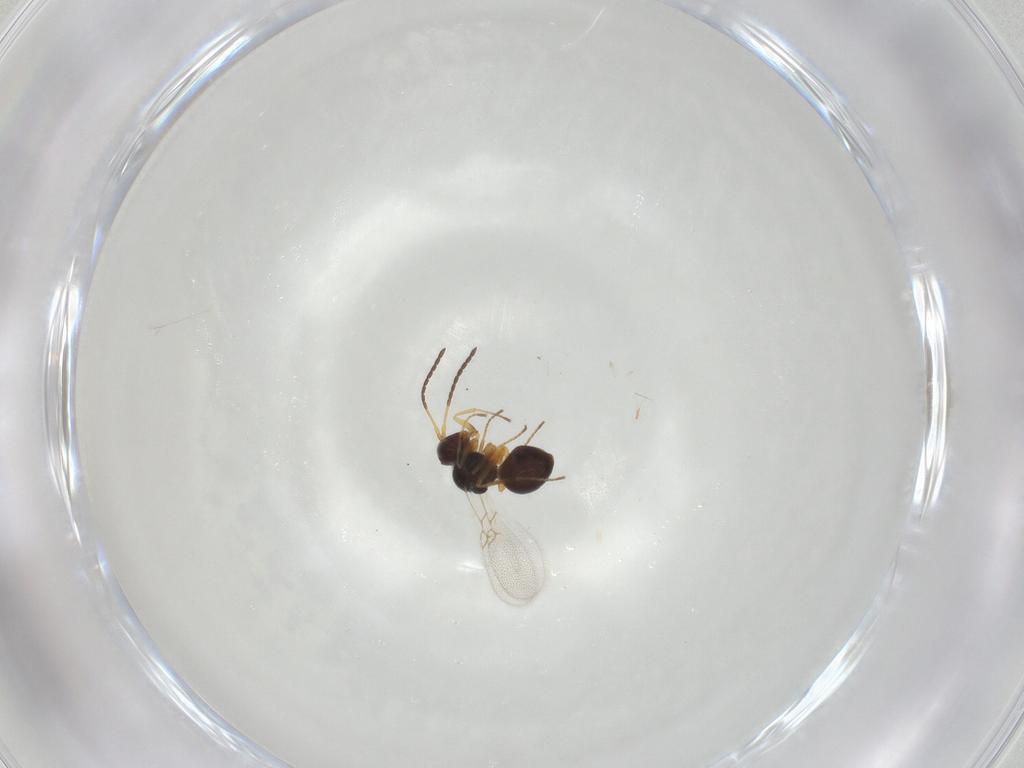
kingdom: Animalia
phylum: Arthropoda
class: Insecta
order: Hymenoptera
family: Figitidae
